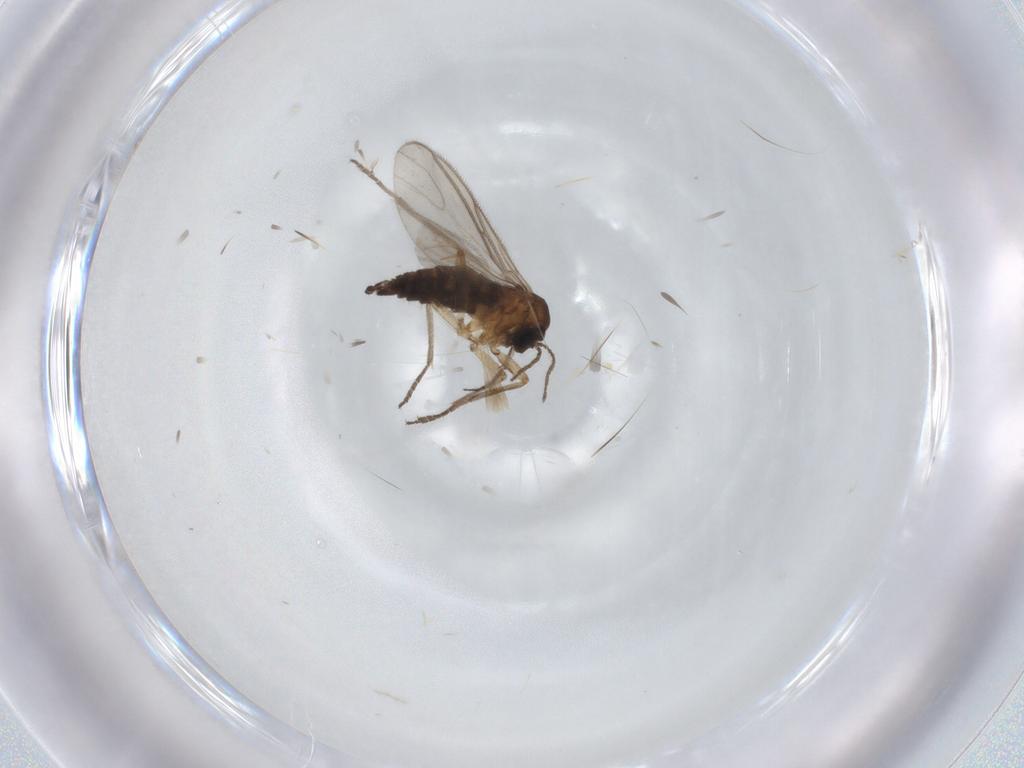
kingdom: Animalia
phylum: Arthropoda
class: Insecta
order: Diptera
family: Sciaridae
